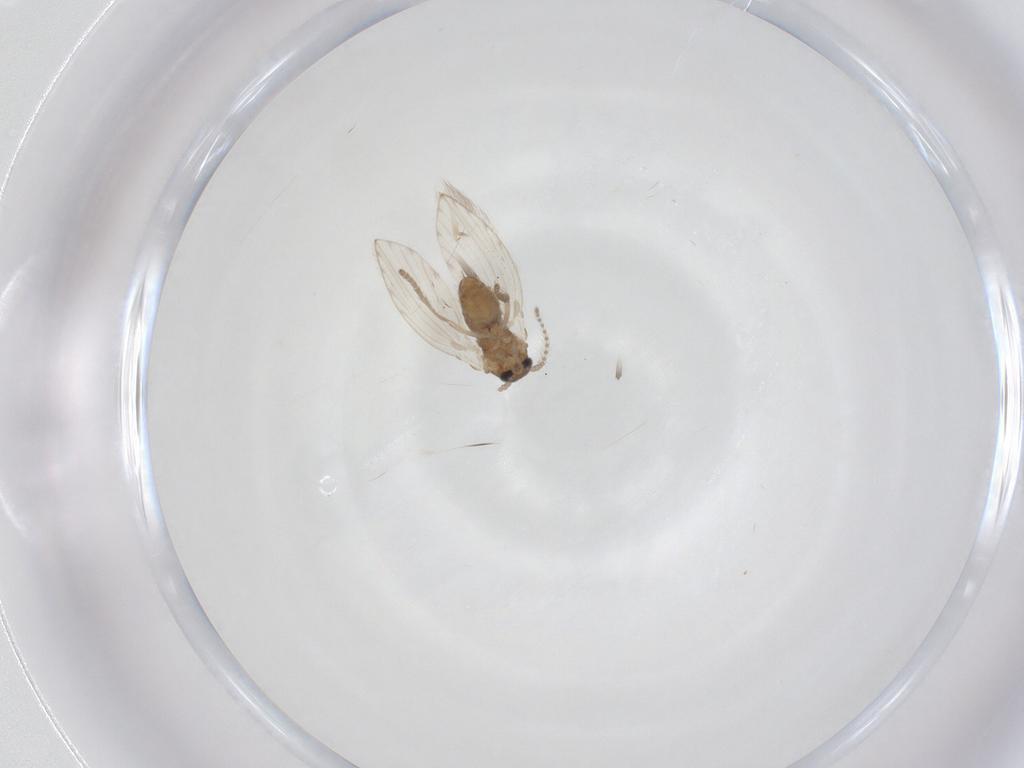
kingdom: Animalia
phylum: Arthropoda
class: Insecta
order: Diptera
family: Psychodidae
